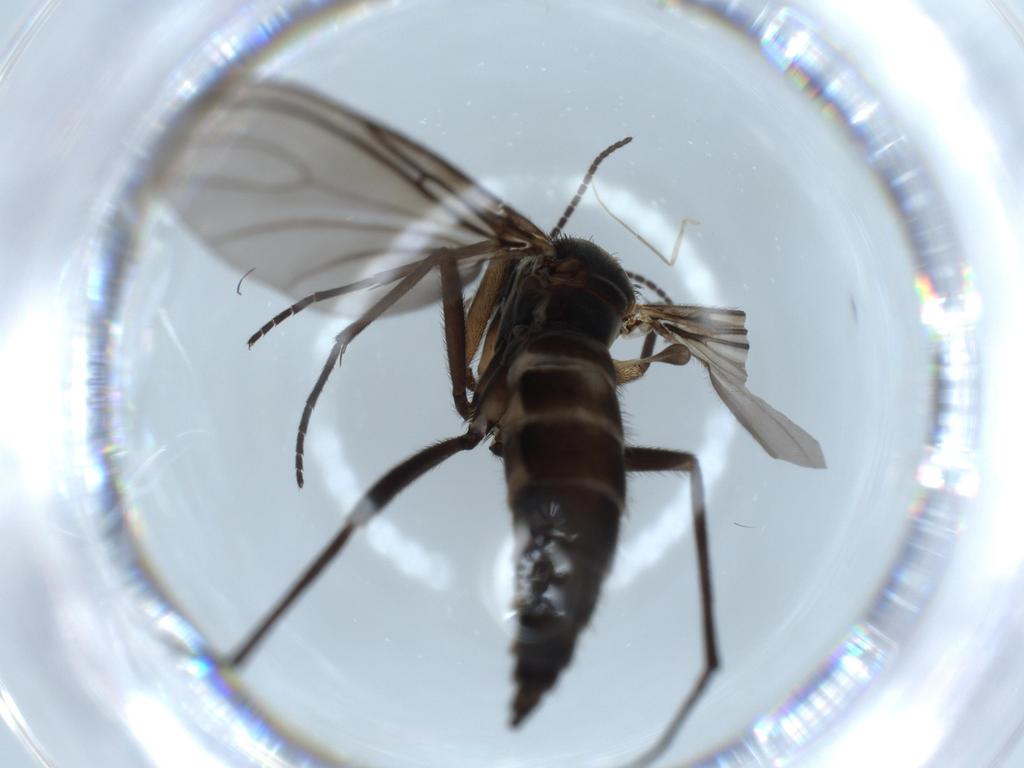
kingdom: Animalia
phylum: Arthropoda
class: Insecta
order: Diptera
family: Sciaridae
